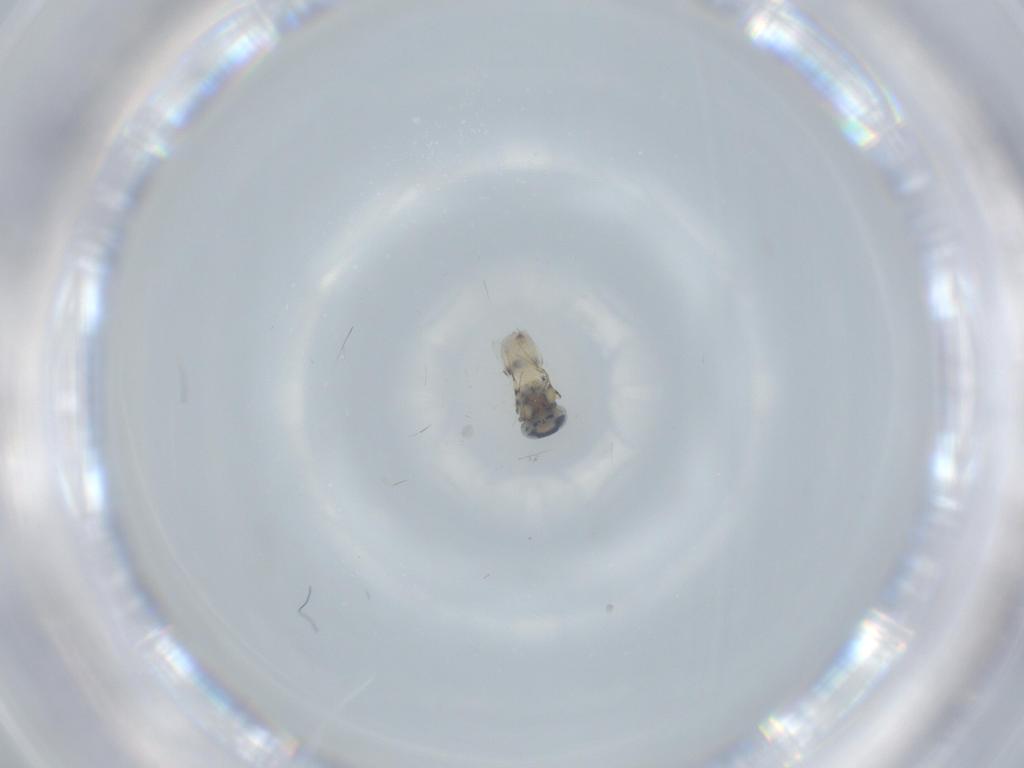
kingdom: Animalia
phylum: Arthropoda
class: Insecta
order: Hymenoptera
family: Scelionidae
